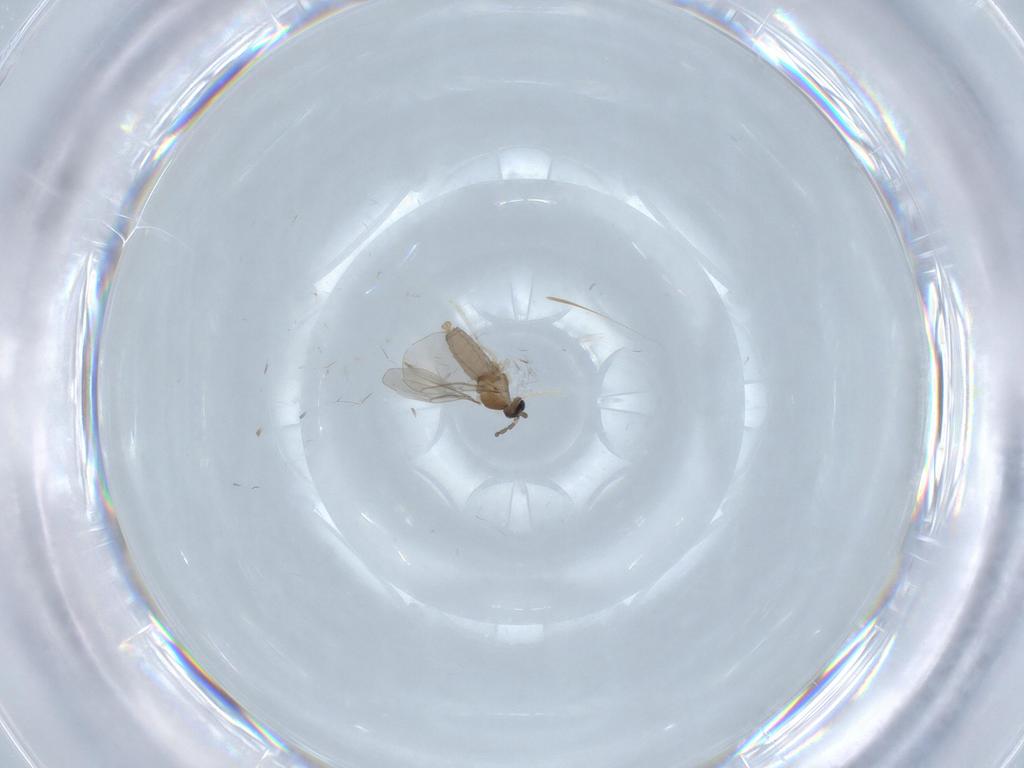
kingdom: Animalia
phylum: Arthropoda
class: Insecta
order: Diptera
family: Cecidomyiidae
